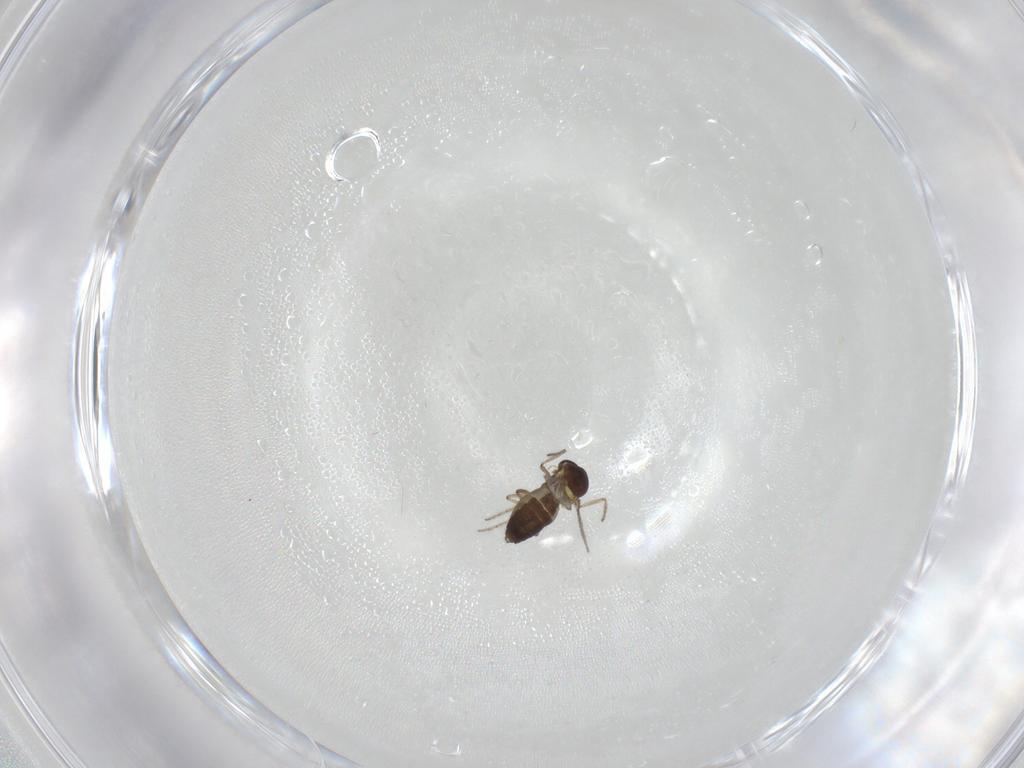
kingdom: Animalia
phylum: Arthropoda
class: Insecta
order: Diptera
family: Ceratopogonidae
